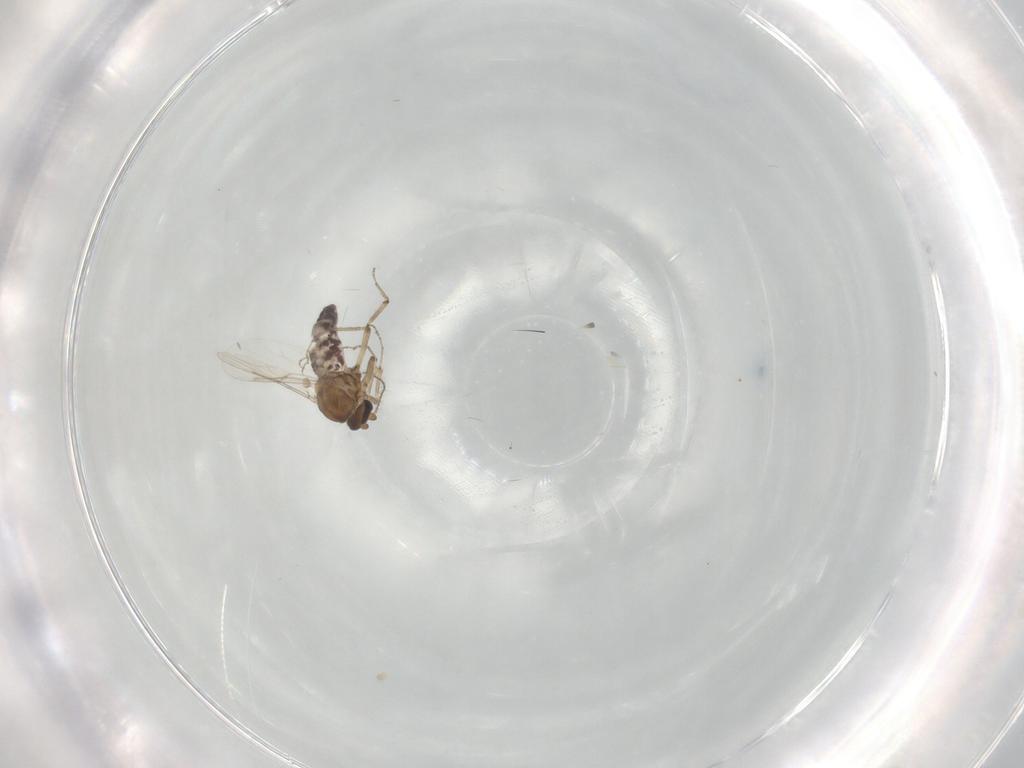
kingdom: Animalia
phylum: Arthropoda
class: Insecta
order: Diptera
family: Ceratopogonidae
